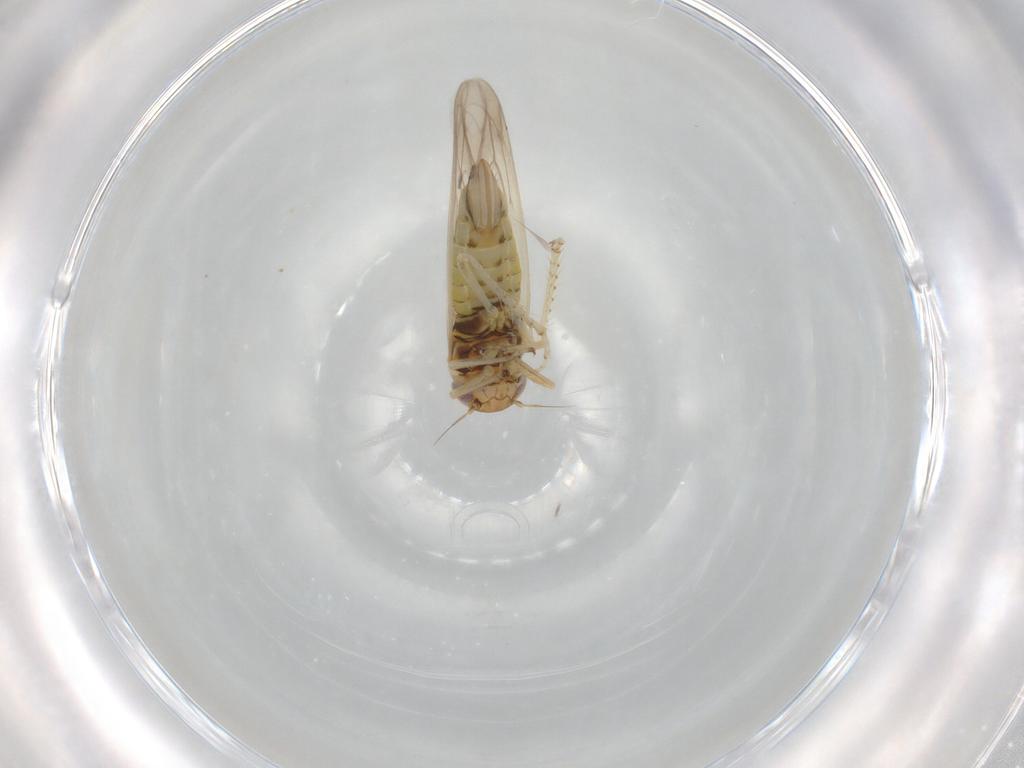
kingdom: Animalia
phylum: Arthropoda
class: Insecta
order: Hemiptera
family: Cicadellidae
